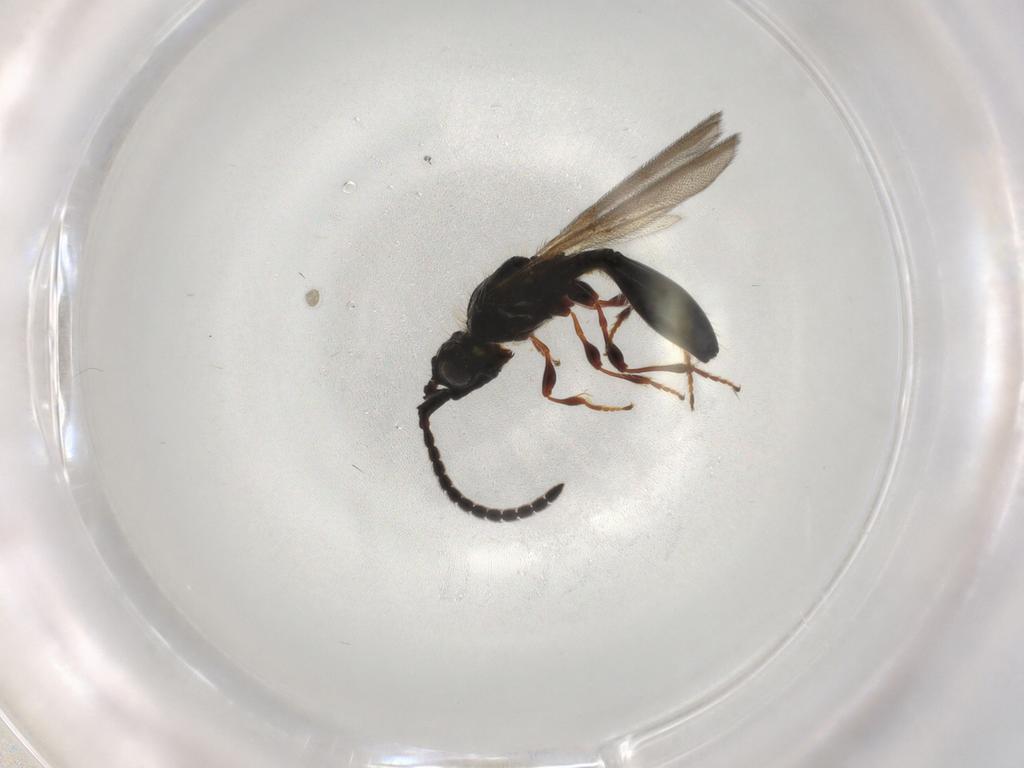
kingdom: Animalia
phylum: Arthropoda
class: Insecta
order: Hymenoptera
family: Diapriidae
